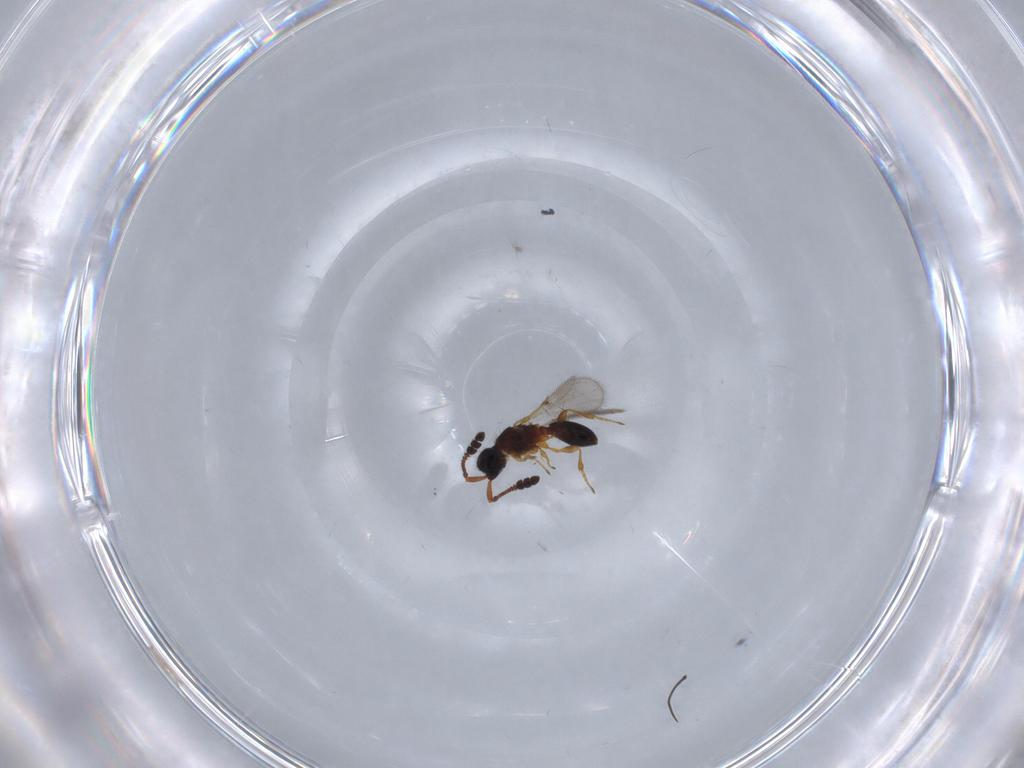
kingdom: Animalia
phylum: Arthropoda
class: Insecta
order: Hymenoptera
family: Diapriidae
